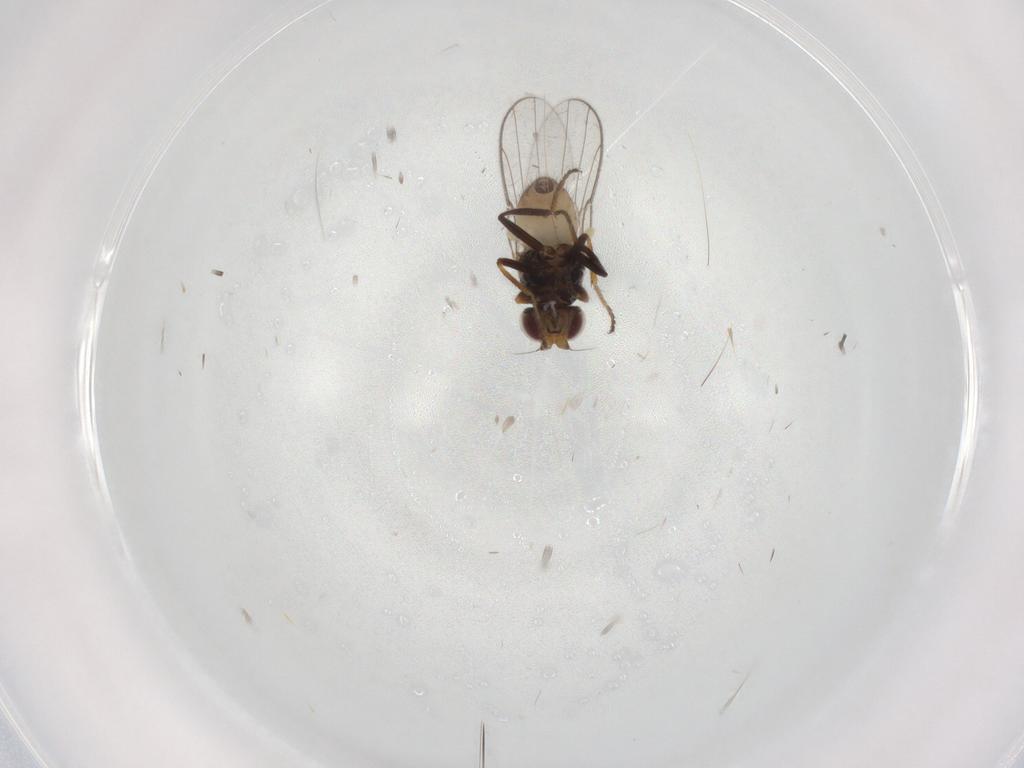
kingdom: Animalia
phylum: Arthropoda
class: Insecta
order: Diptera
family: Chloropidae
